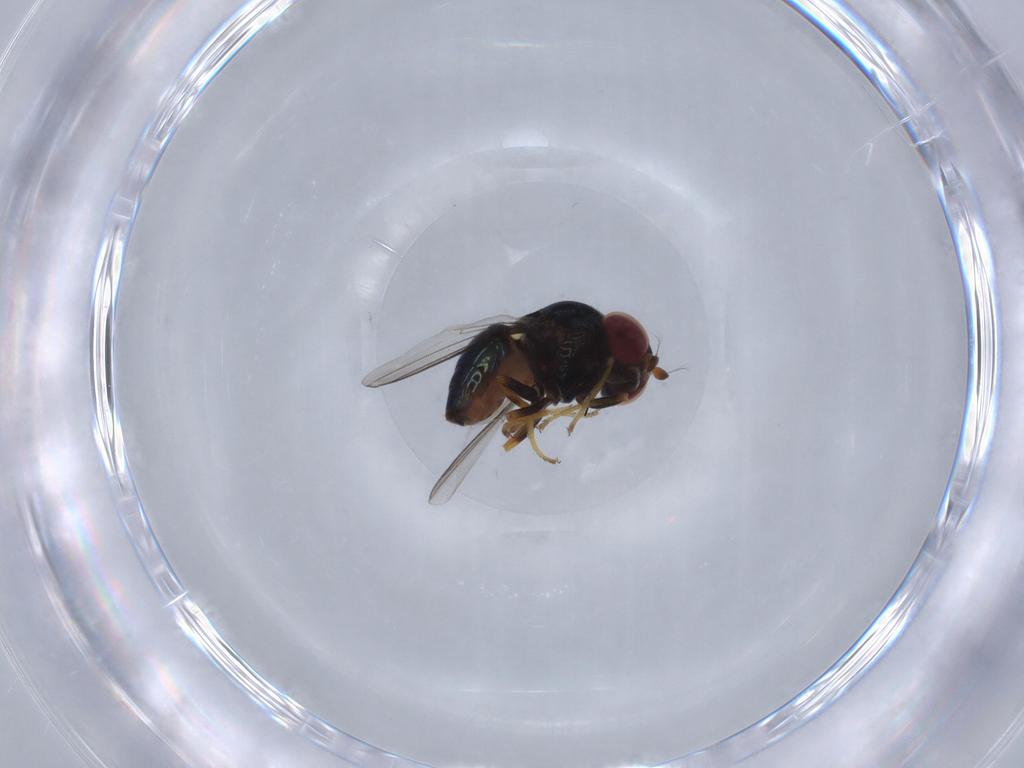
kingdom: Animalia
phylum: Arthropoda
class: Insecta
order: Diptera
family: Chloropidae
